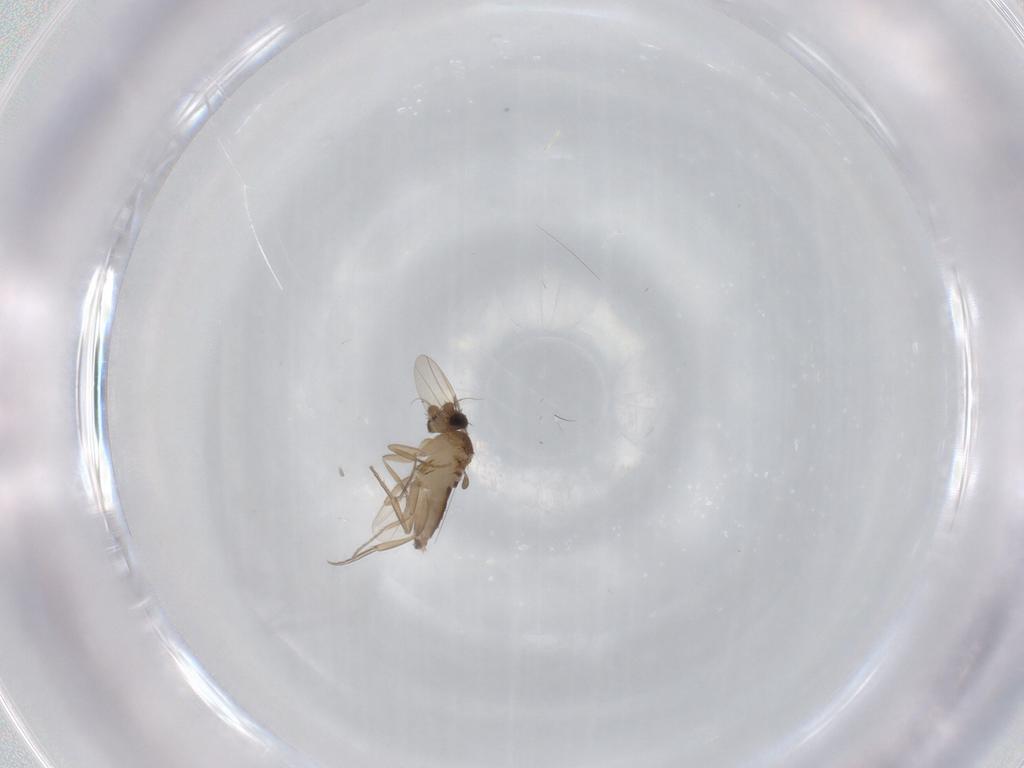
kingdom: Animalia
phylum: Arthropoda
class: Insecta
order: Diptera
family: Phoridae
